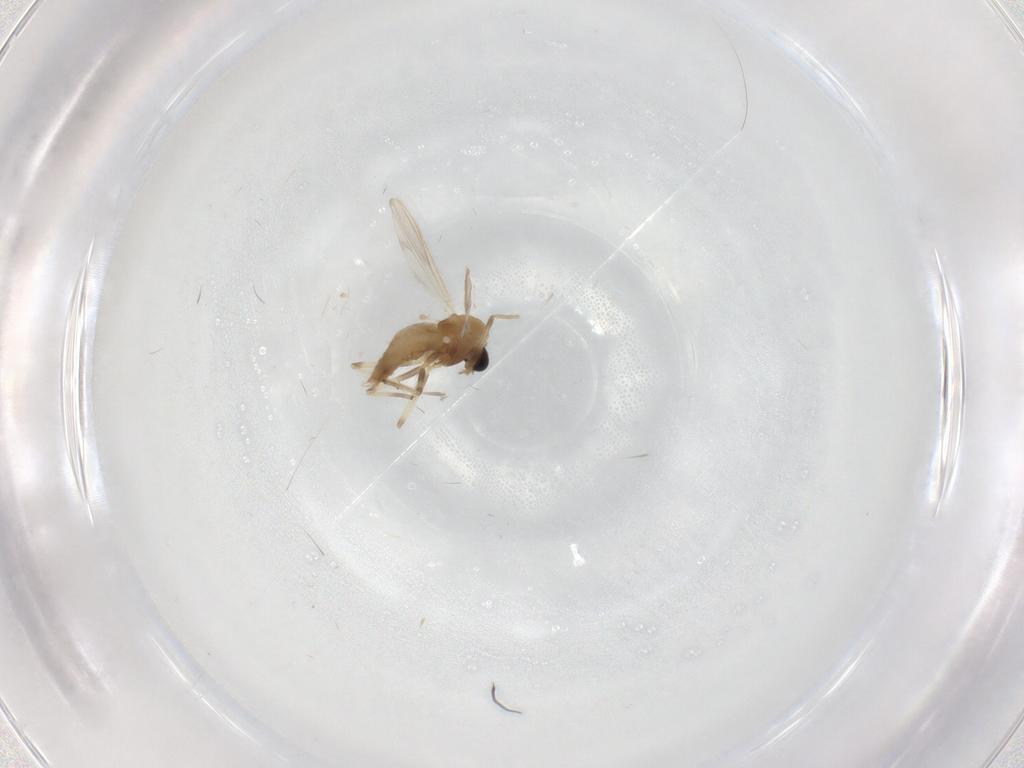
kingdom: Animalia
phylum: Arthropoda
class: Insecta
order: Diptera
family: Chironomidae
